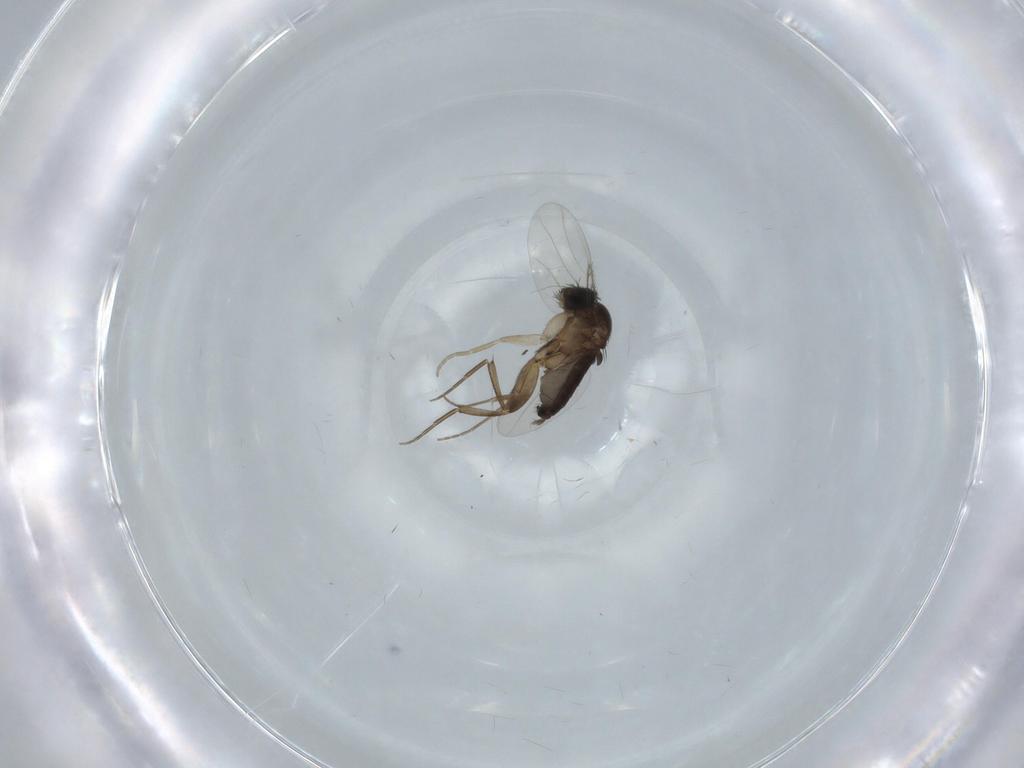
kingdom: Animalia
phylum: Arthropoda
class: Insecta
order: Diptera
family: Phoridae
